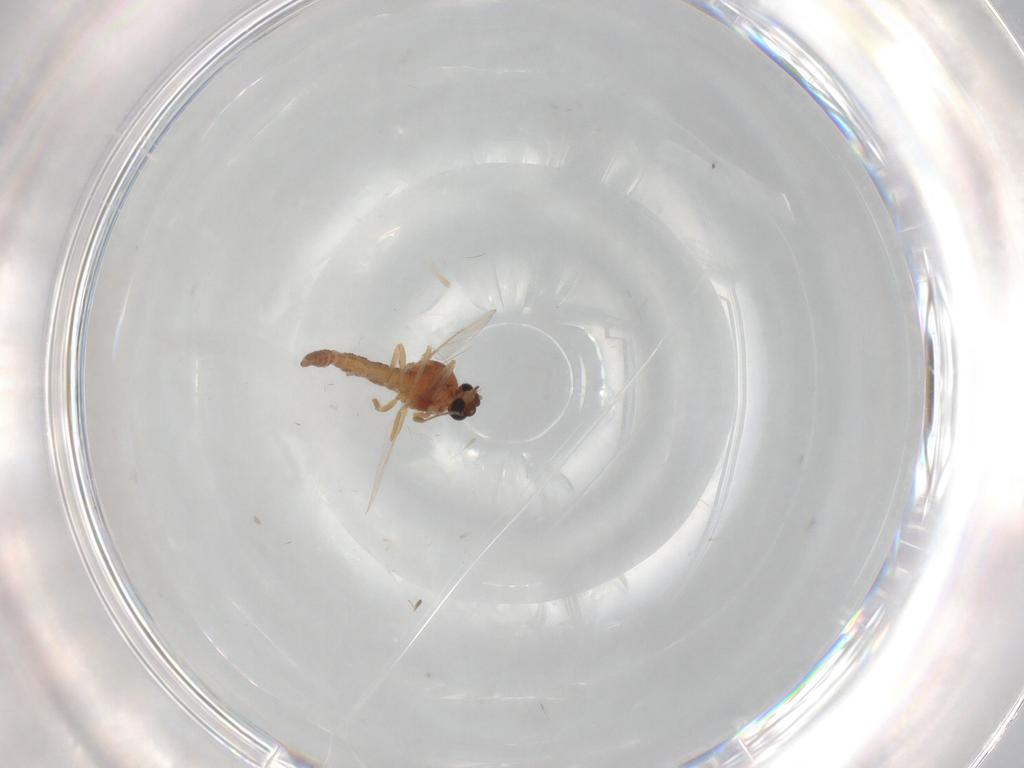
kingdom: Animalia
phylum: Arthropoda
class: Insecta
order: Diptera
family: Ceratopogonidae
